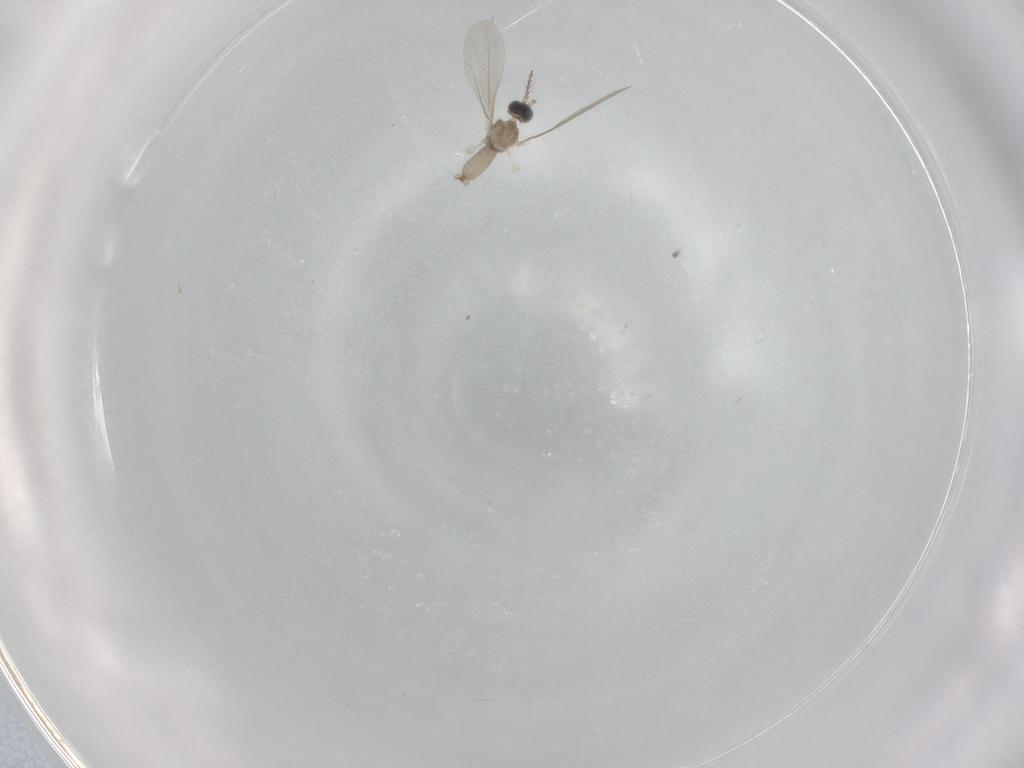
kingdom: Animalia
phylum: Arthropoda
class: Insecta
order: Diptera
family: Cecidomyiidae
